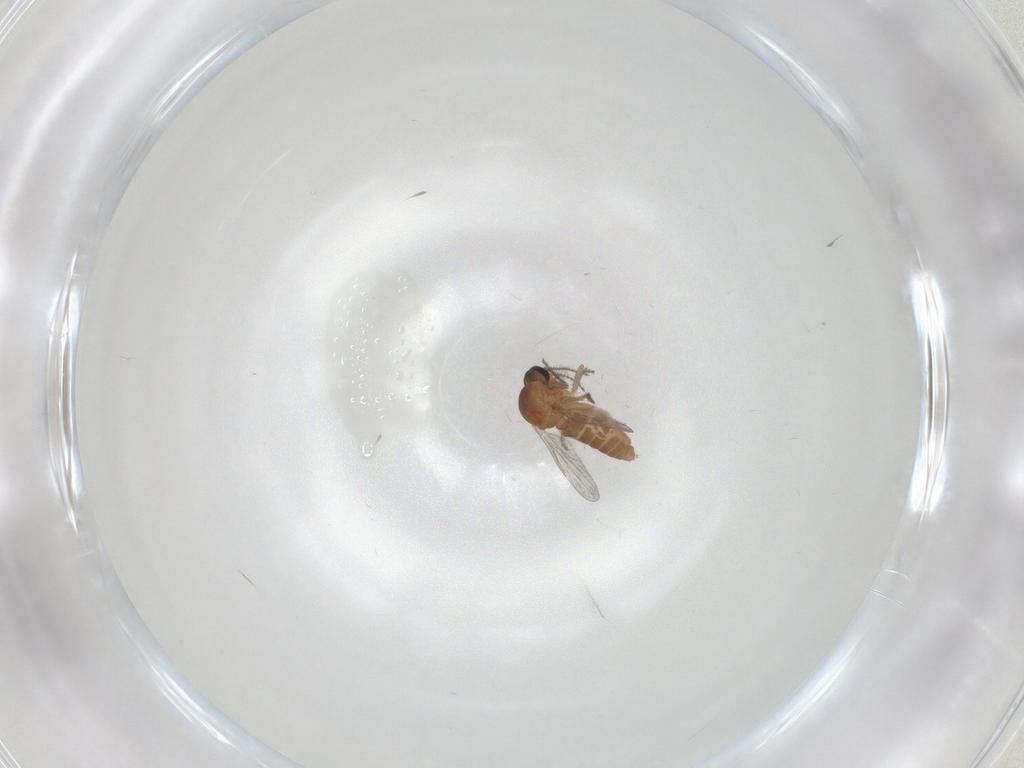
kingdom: Animalia
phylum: Arthropoda
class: Insecta
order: Diptera
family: Ceratopogonidae
